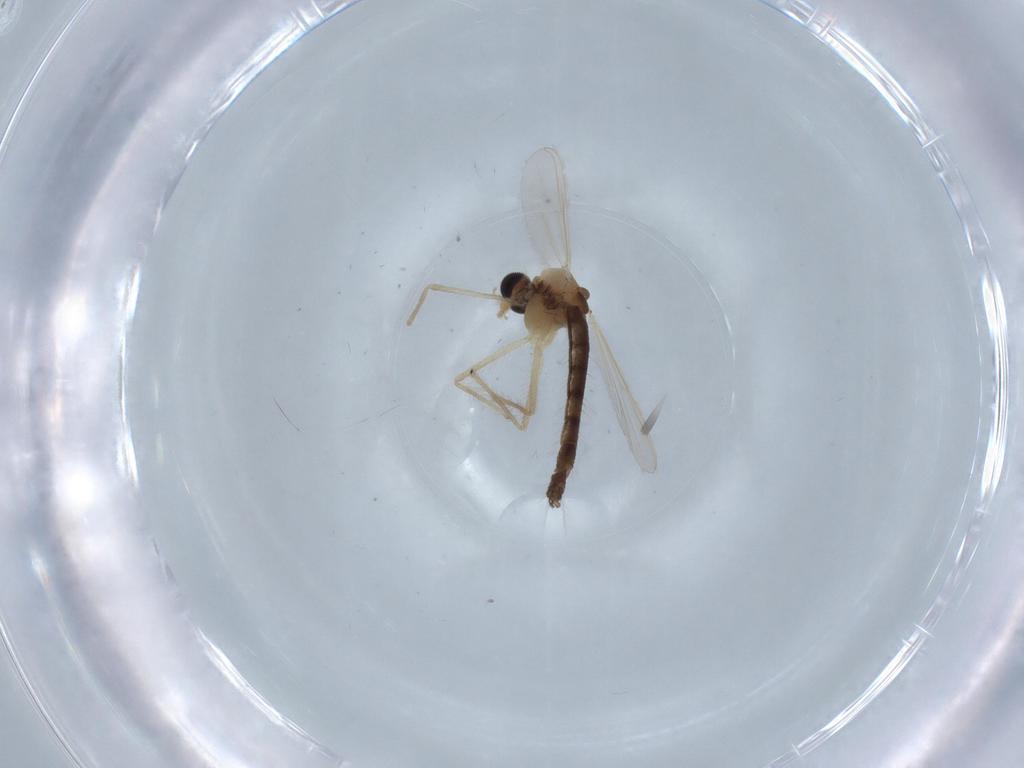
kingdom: Animalia
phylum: Arthropoda
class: Insecta
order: Diptera
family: Chironomidae
